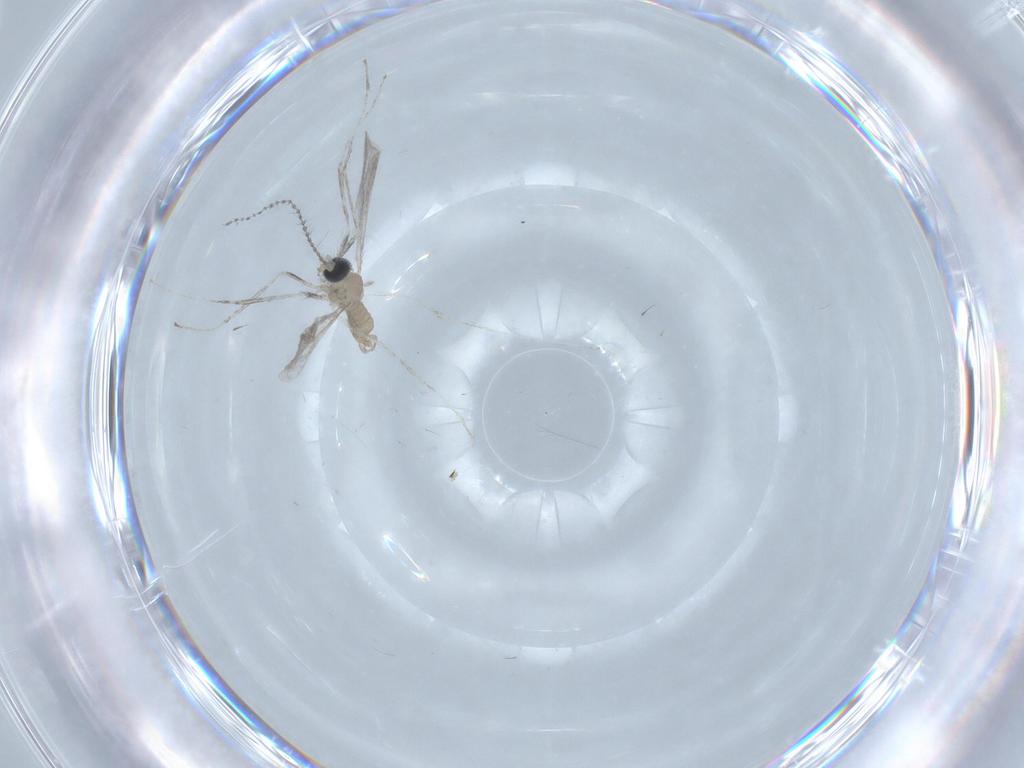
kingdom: Animalia
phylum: Arthropoda
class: Insecta
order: Diptera
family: Cecidomyiidae
